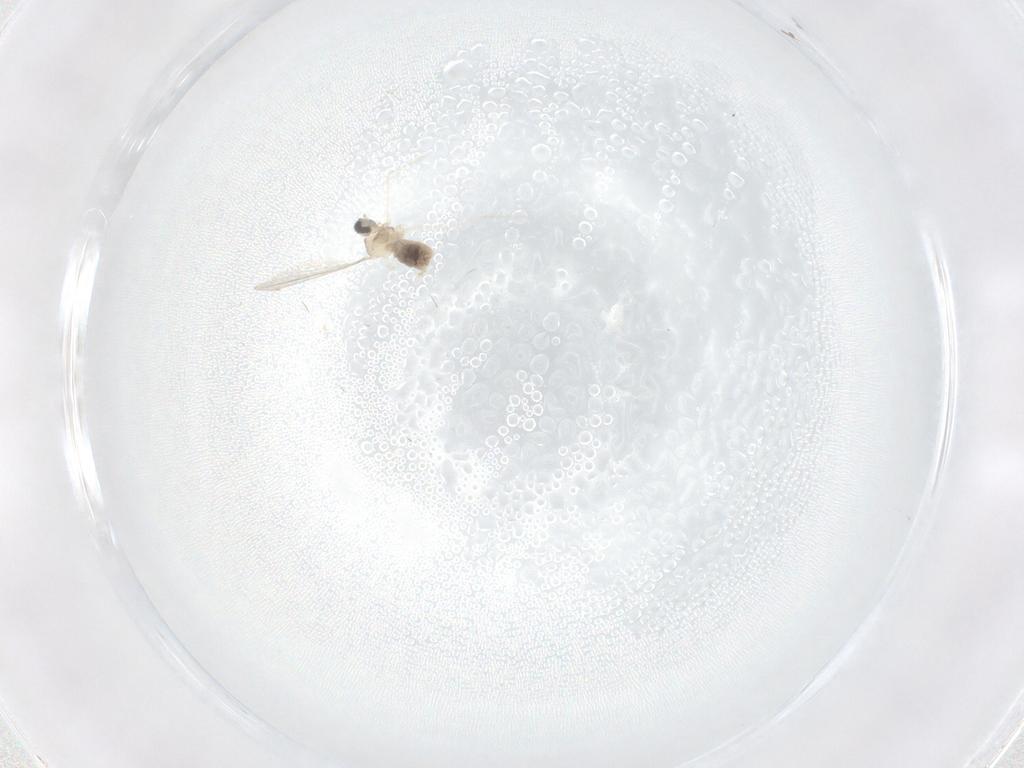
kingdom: Animalia
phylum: Arthropoda
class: Insecta
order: Diptera
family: Cecidomyiidae
